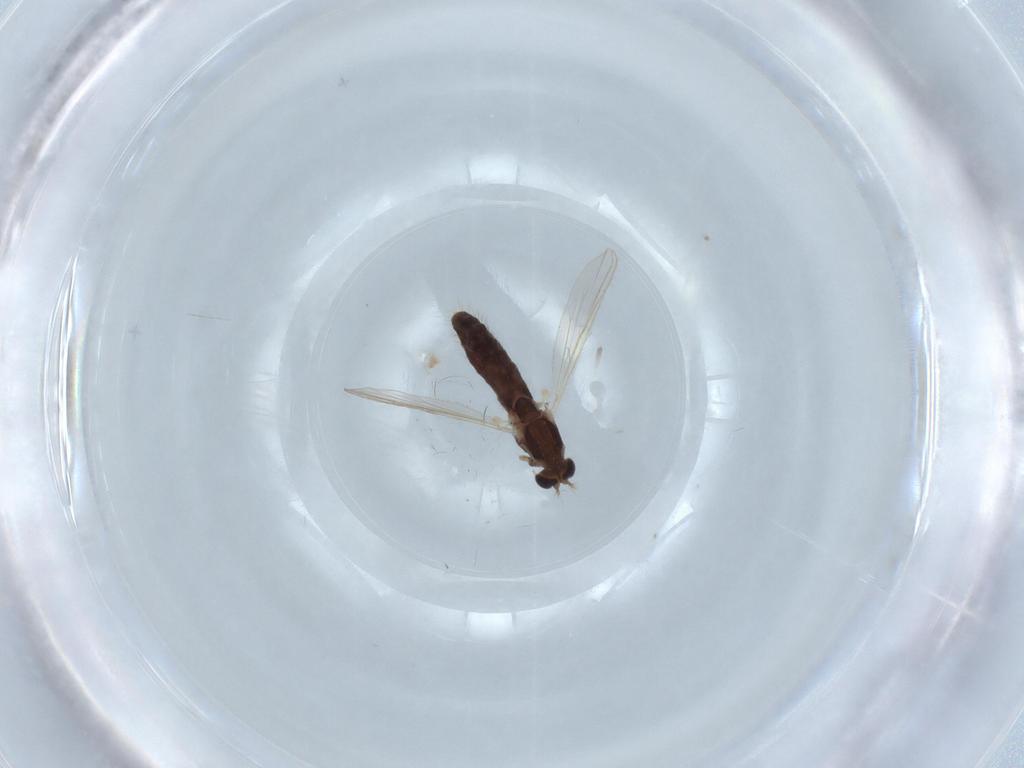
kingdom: Animalia
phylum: Arthropoda
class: Insecta
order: Diptera
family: Chironomidae
